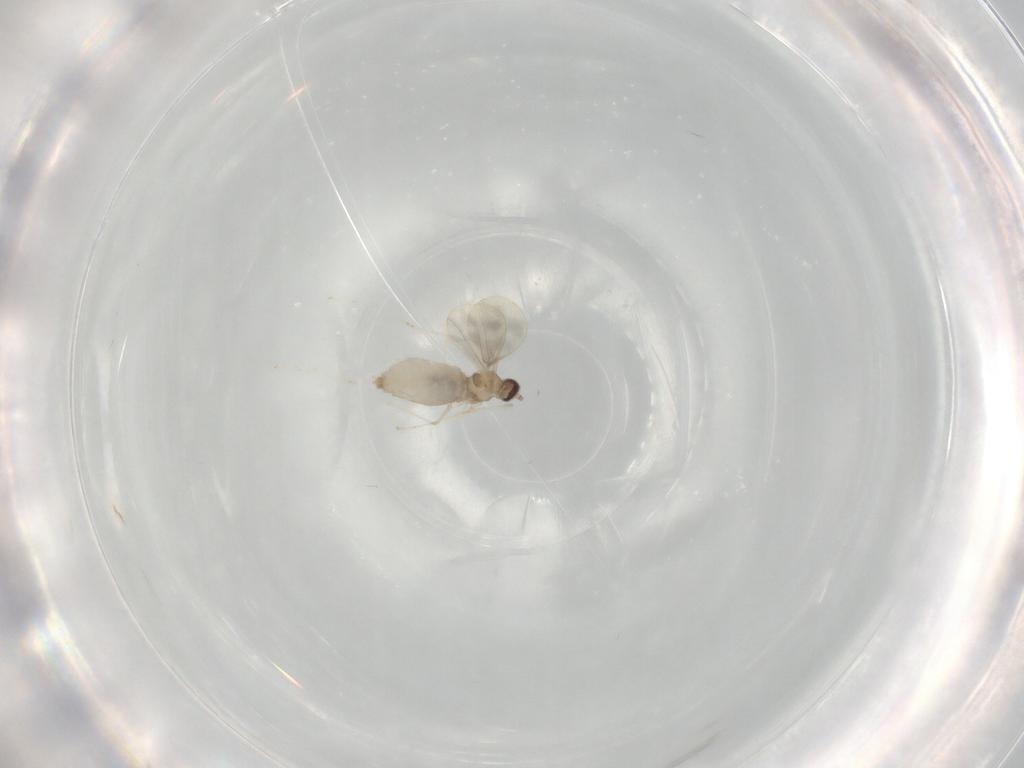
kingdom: Animalia
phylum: Arthropoda
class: Insecta
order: Diptera
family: Cecidomyiidae
